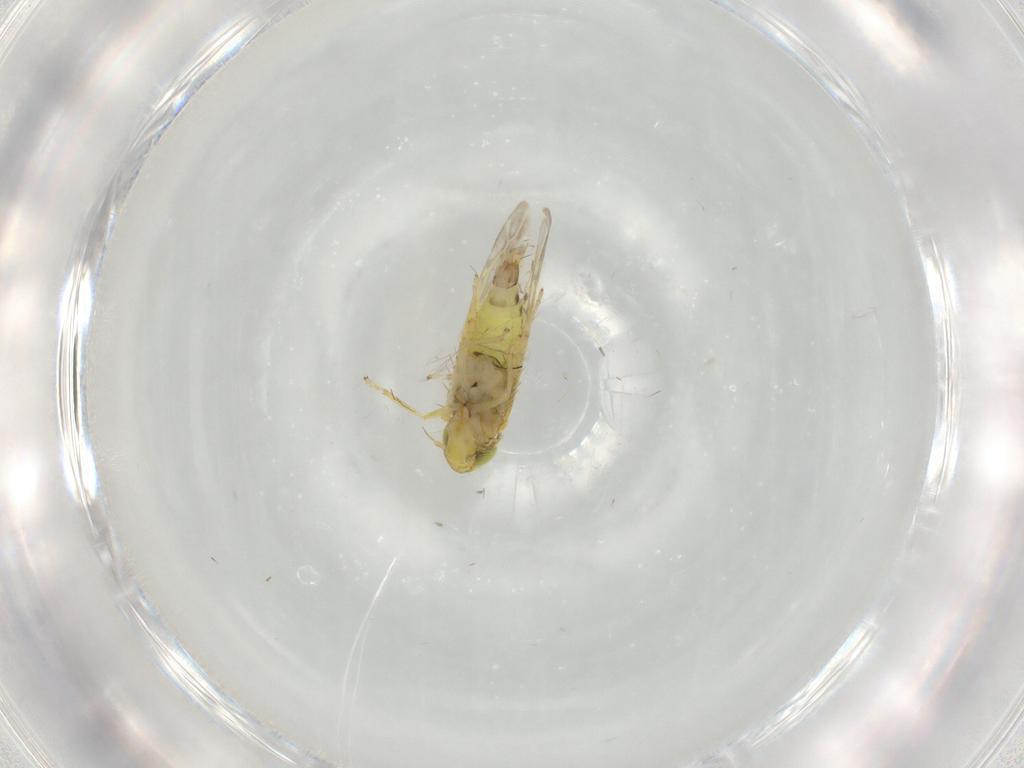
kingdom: Animalia
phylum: Arthropoda
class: Insecta
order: Hemiptera
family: Cicadellidae
